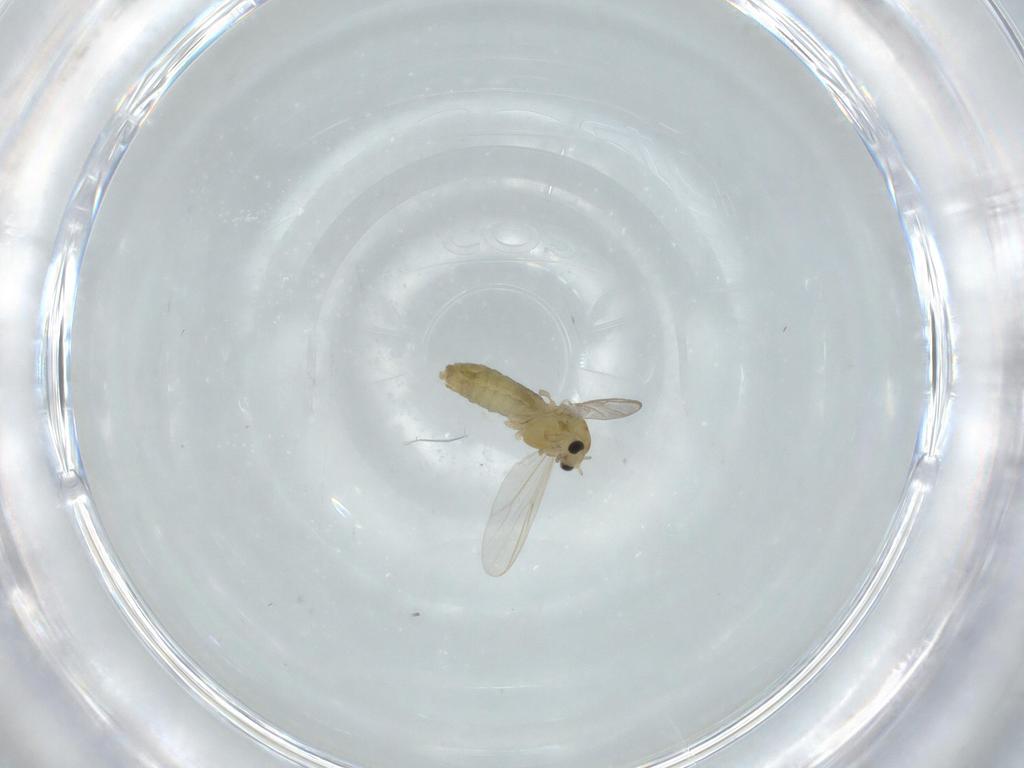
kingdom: Animalia
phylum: Arthropoda
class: Insecta
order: Diptera
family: Chironomidae
